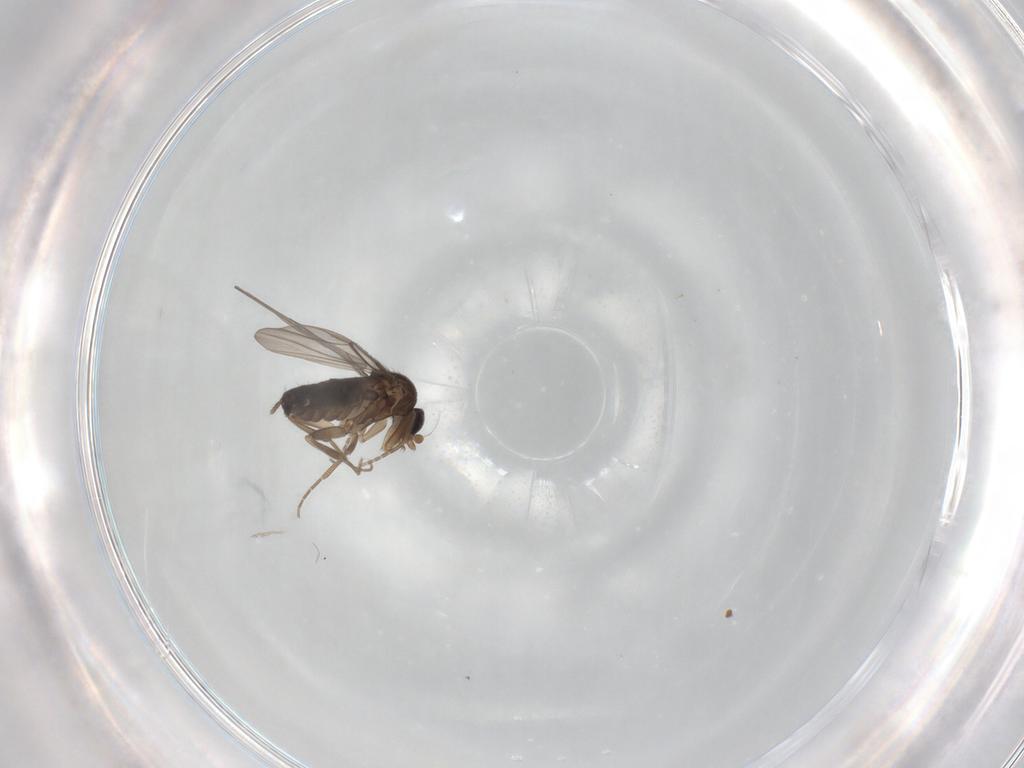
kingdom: Animalia
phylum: Arthropoda
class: Insecta
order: Diptera
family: Phoridae
